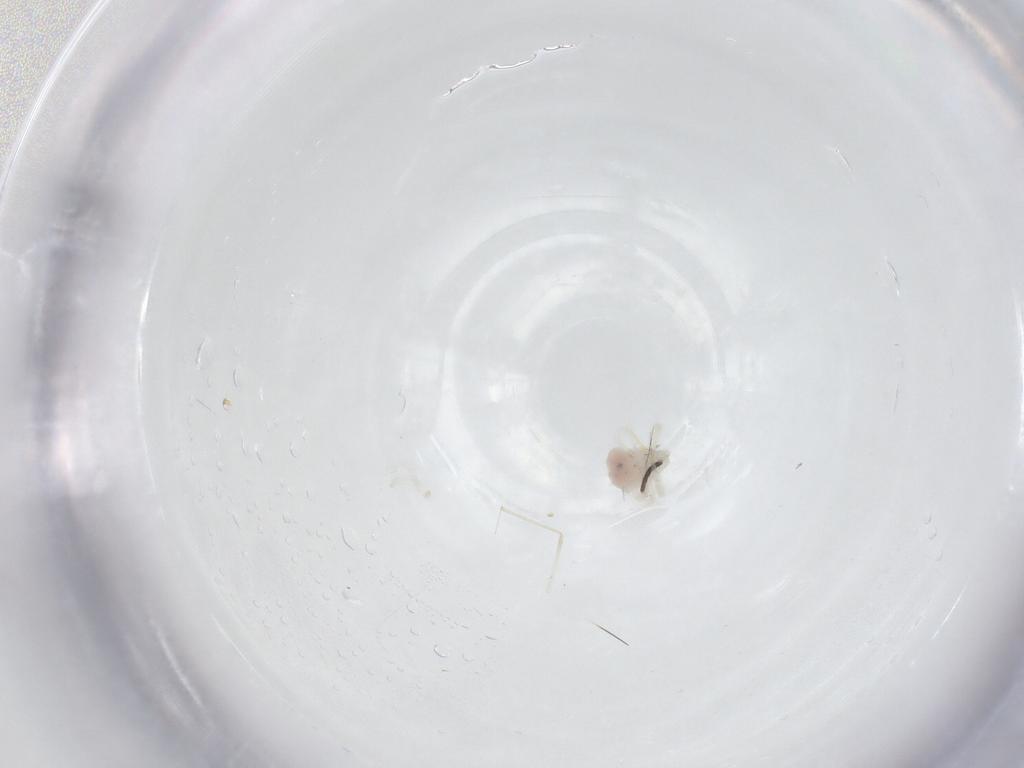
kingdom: Animalia
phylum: Arthropoda
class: Arachnida
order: Trombidiformes
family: Anystidae
